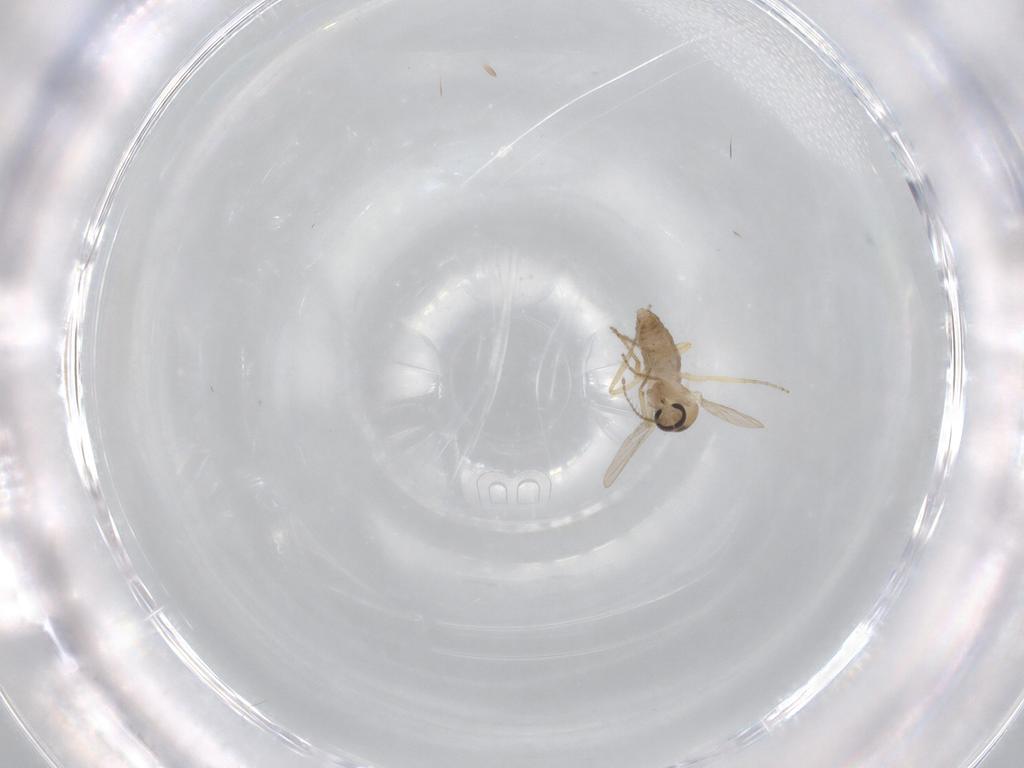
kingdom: Animalia
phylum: Arthropoda
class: Insecta
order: Diptera
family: Ceratopogonidae
